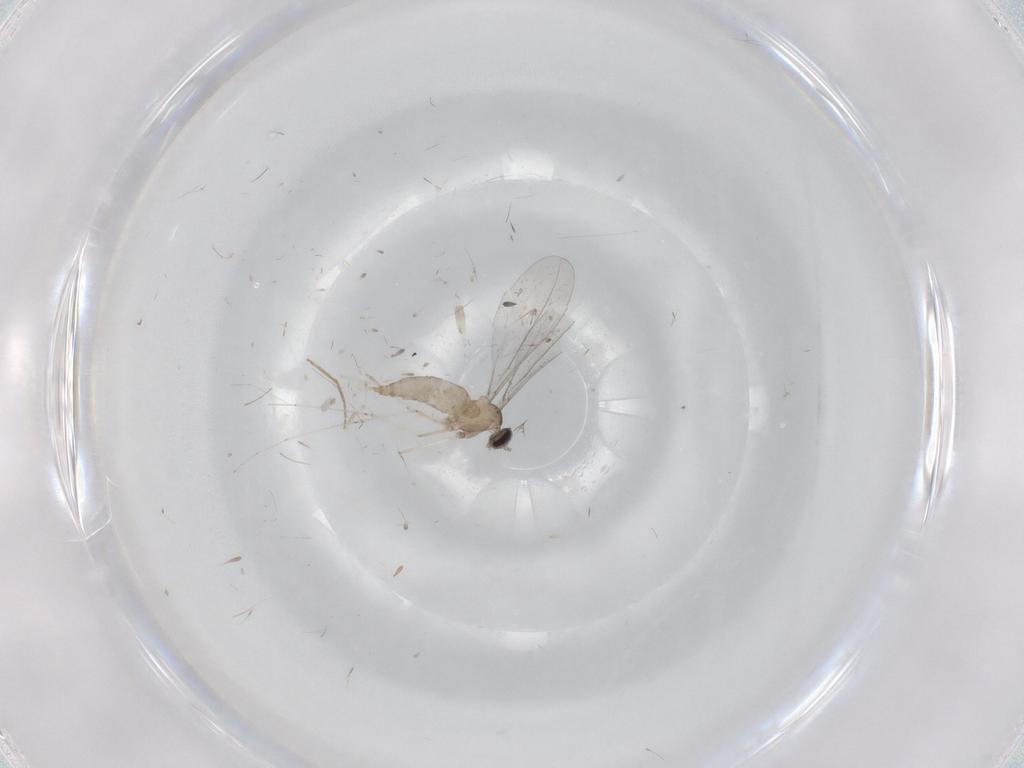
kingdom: Animalia
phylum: Arthropoda
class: Insecta
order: Diptera
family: Cecidomyiidae
